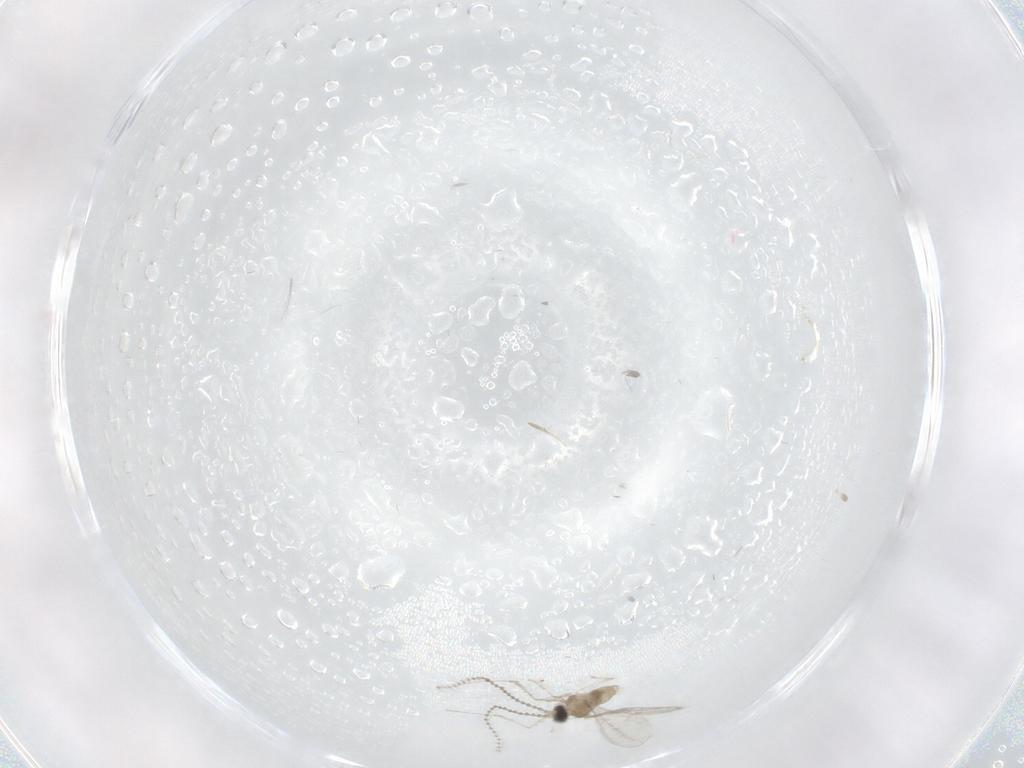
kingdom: Animalia
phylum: Arthropoda
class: Insecta
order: Diptera
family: Cecidomyiidae
